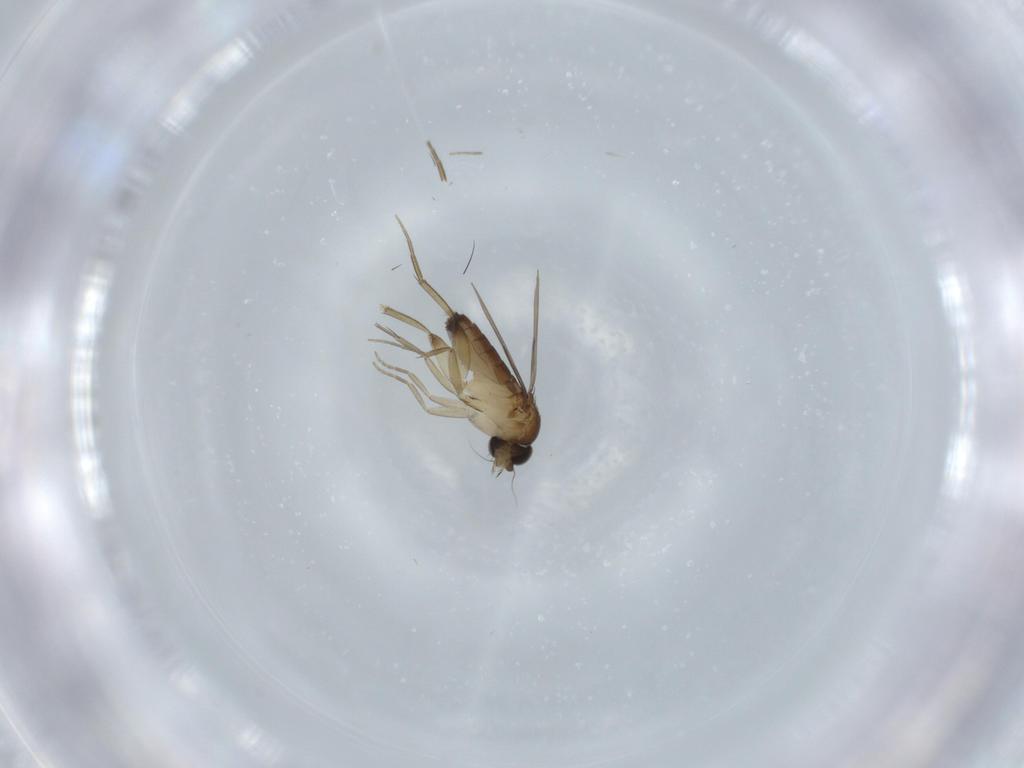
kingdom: Animalia
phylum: Arthropoda
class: Insecta
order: Diptera
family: Phoridae
